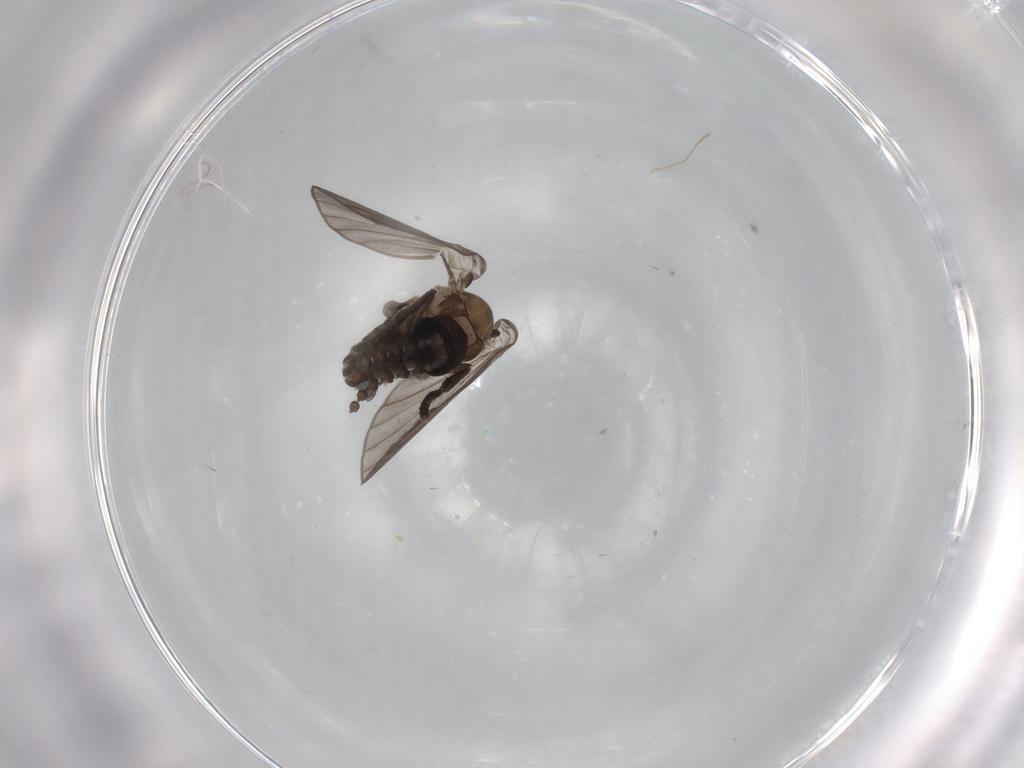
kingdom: Animalia
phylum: Arthropoda
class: Insecta
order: Diptera
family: Psychodidae
